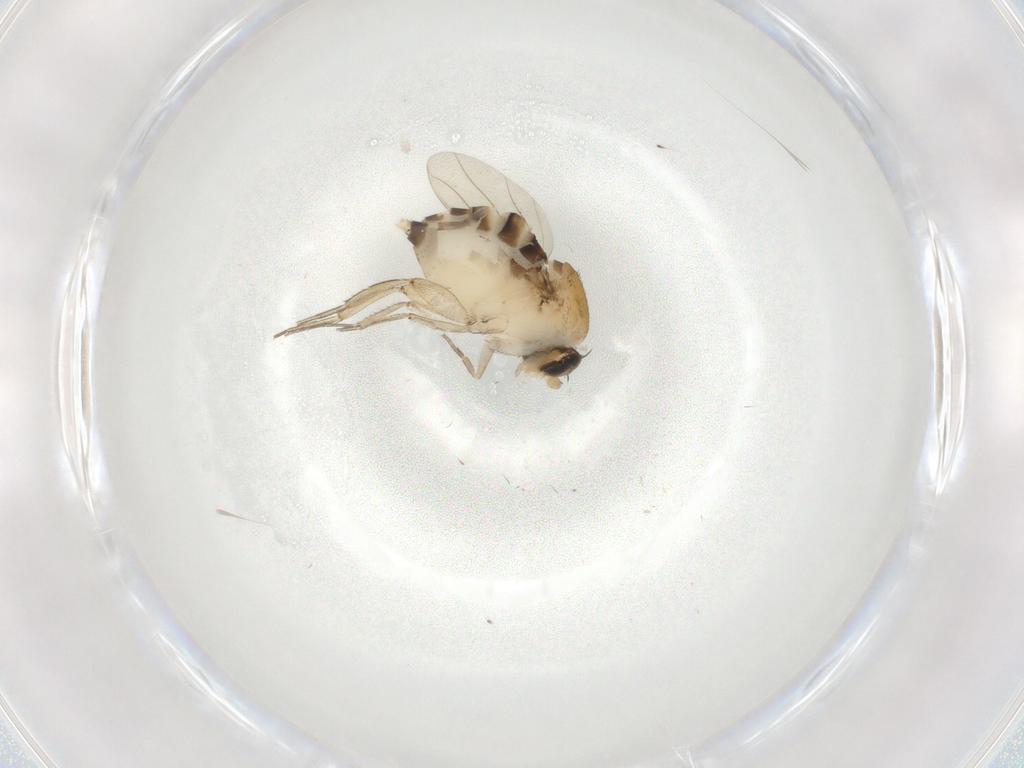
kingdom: Animalia
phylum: Arthropoda
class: Insecta
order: Diptera
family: Phoridae
